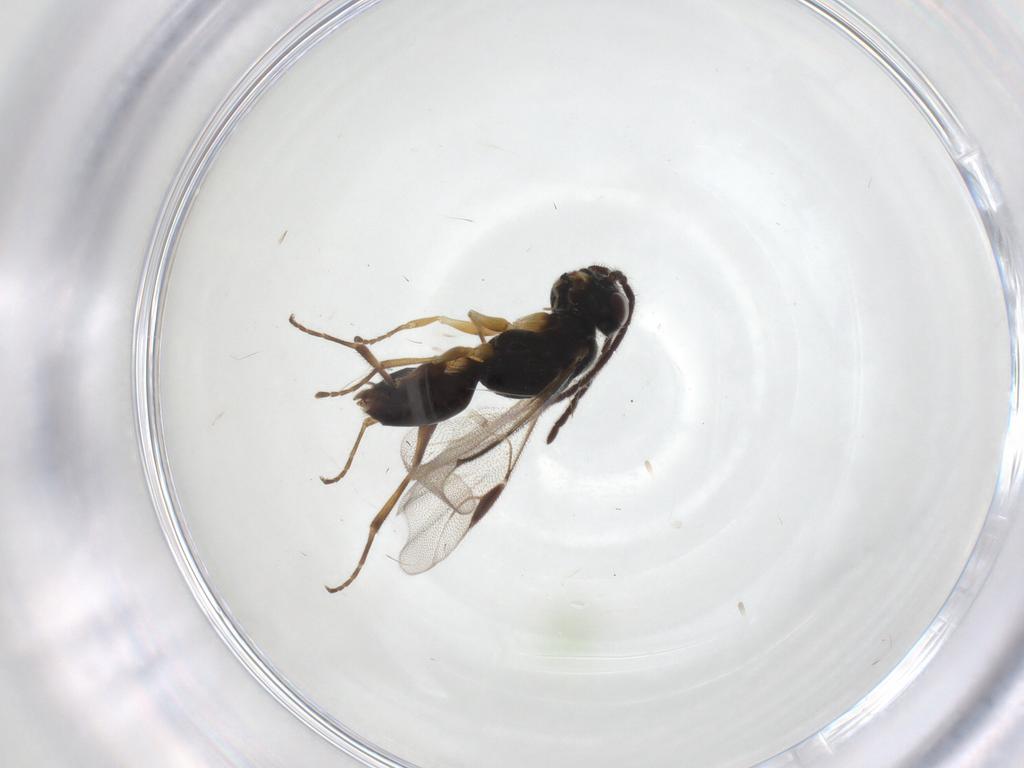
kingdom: Animalia
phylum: Arthropoda
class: Insecta
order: Hymenoptera
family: Dryinidae
